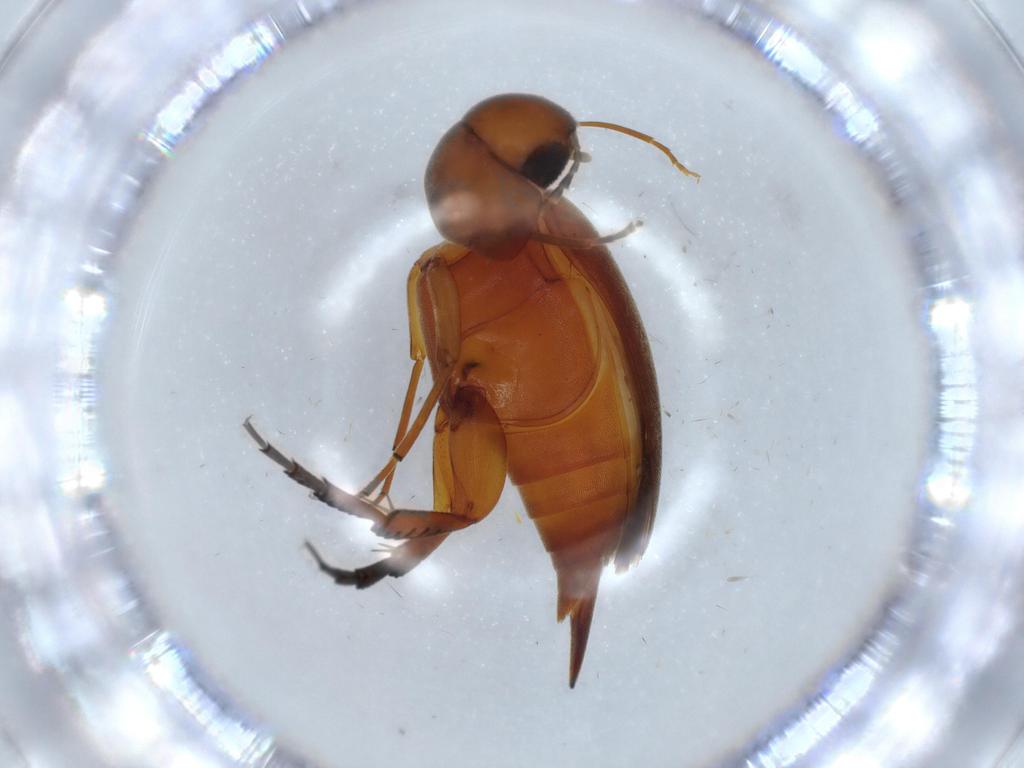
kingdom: Animalia
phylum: Arthropoda
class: Insecta
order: Coleoptera
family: Mordellidae
